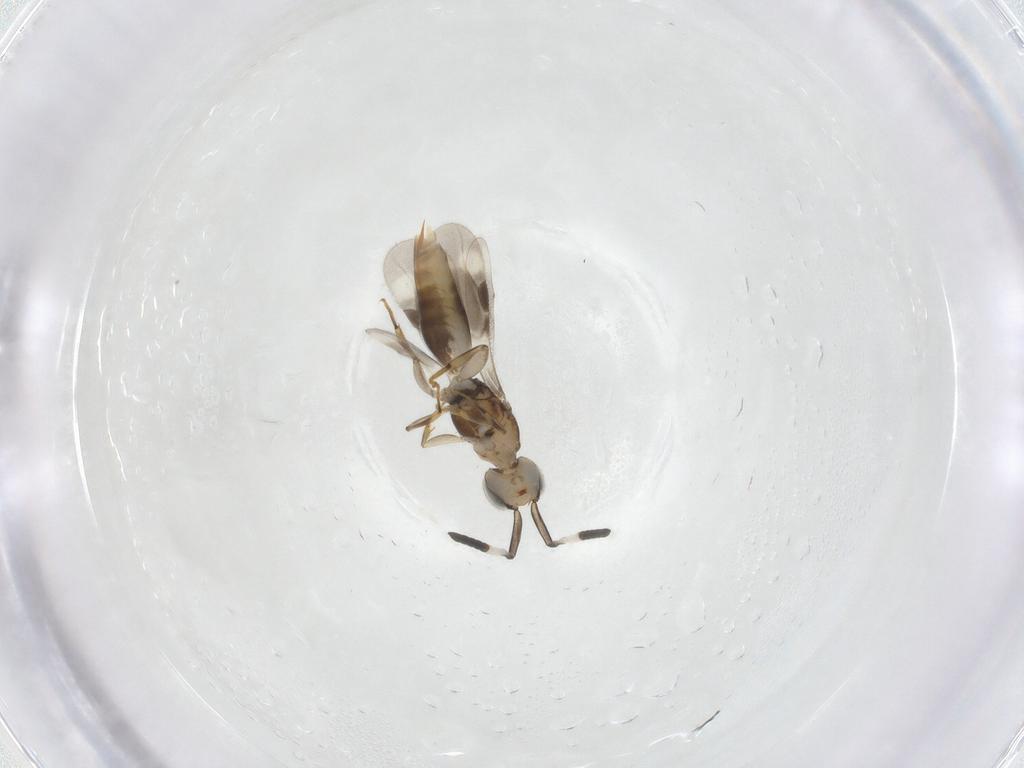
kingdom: Animalia
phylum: Arthropoda
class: Insecta
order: Hymenoptera
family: Megaspilidae
